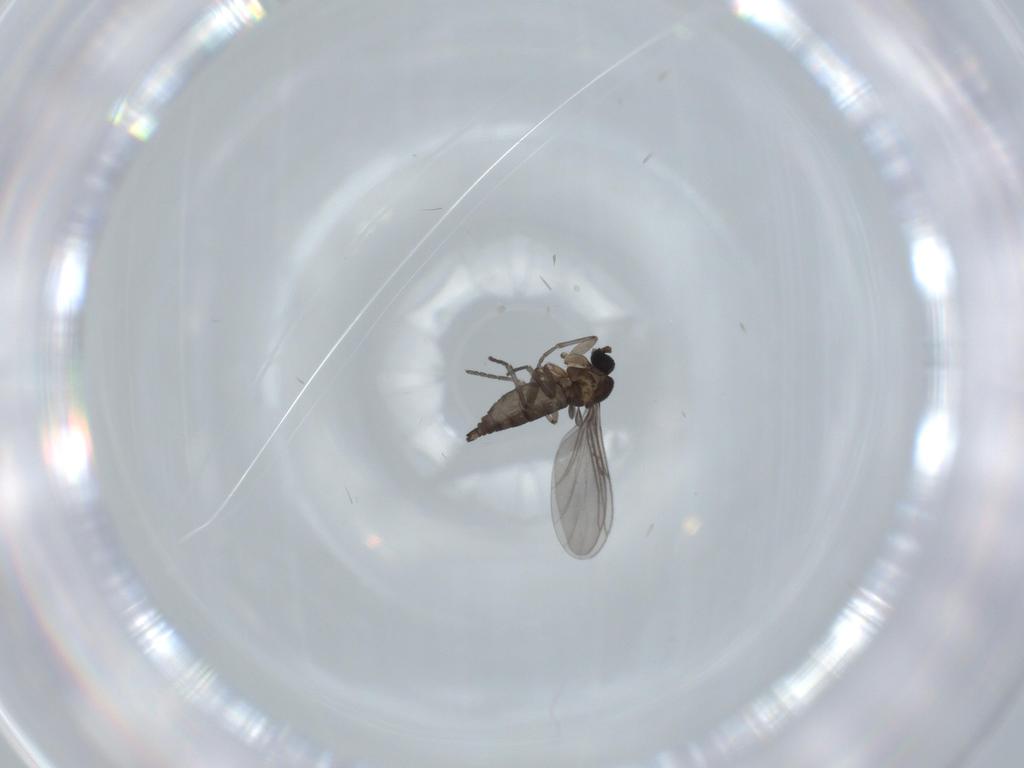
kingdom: Animalia
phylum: Arthropoda
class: Insecta
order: Diptera
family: Chironomidae
